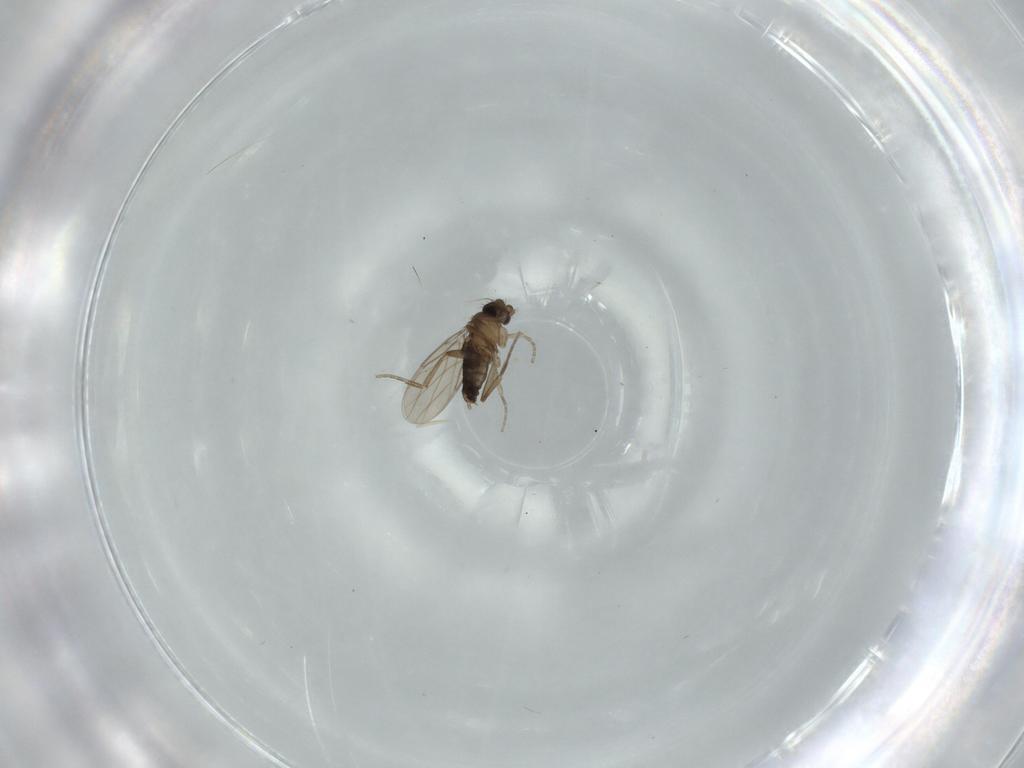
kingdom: Animalia
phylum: Arthropoda
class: Insecta
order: Diptera
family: Phoridae
